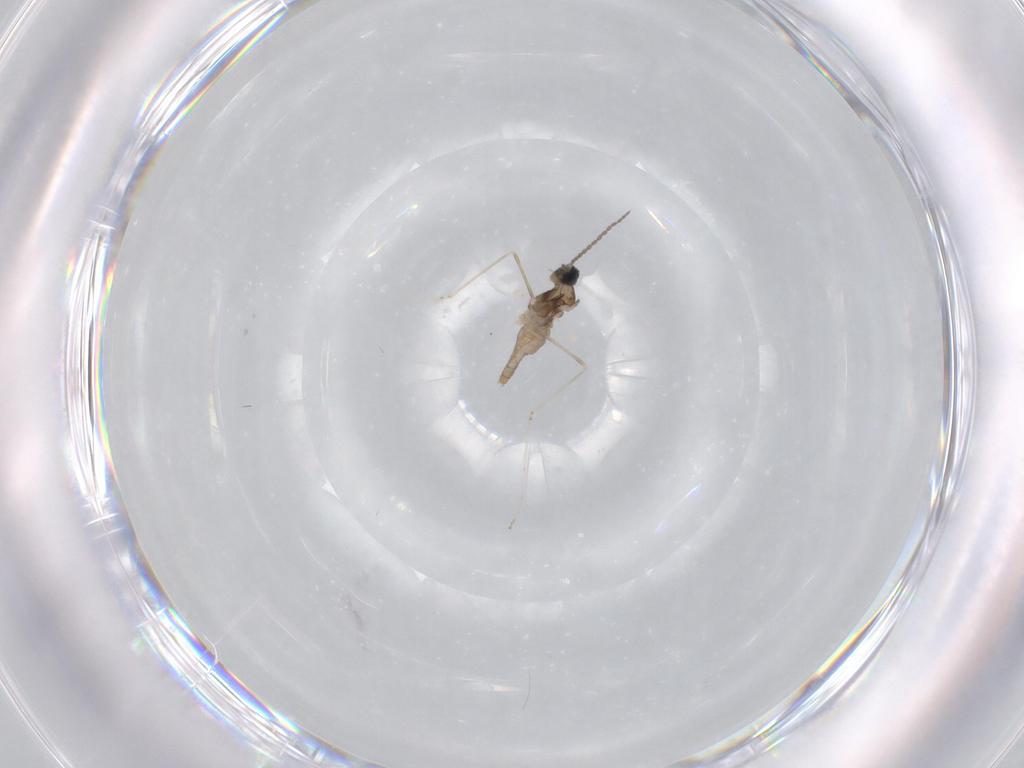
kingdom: Animalia
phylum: Arthropoda
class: Insecta
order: Diptera
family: Cecidomyiidae
